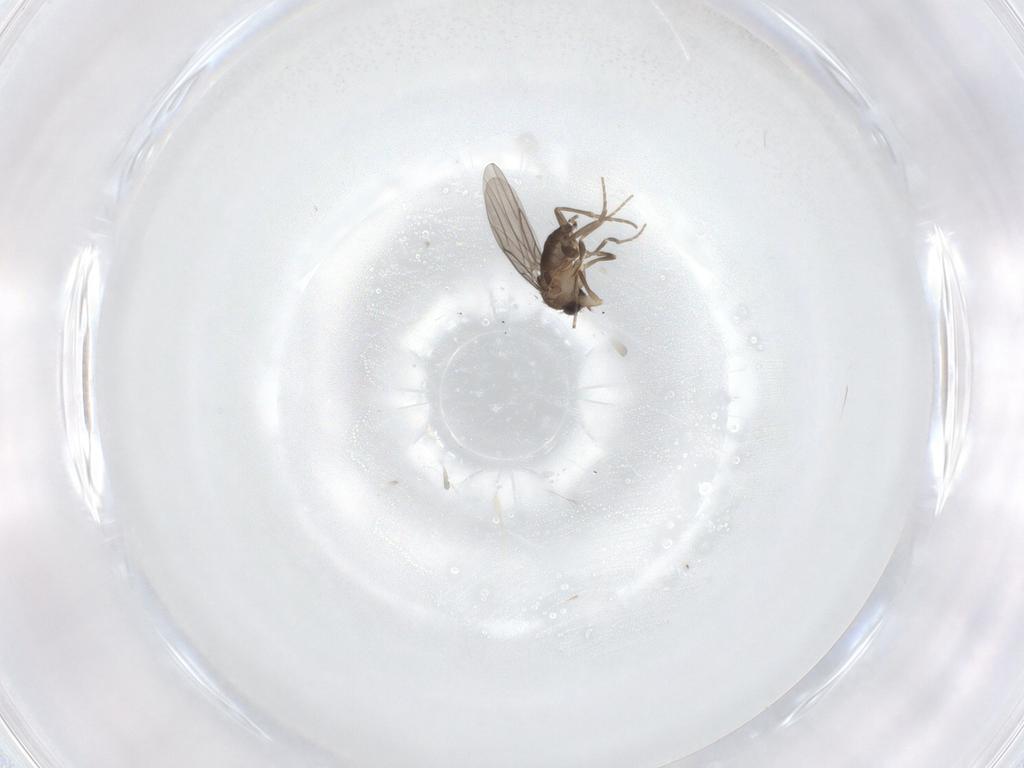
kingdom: Animalia
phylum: Arthropoda
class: Insecta
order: Diptera
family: Phoridae
